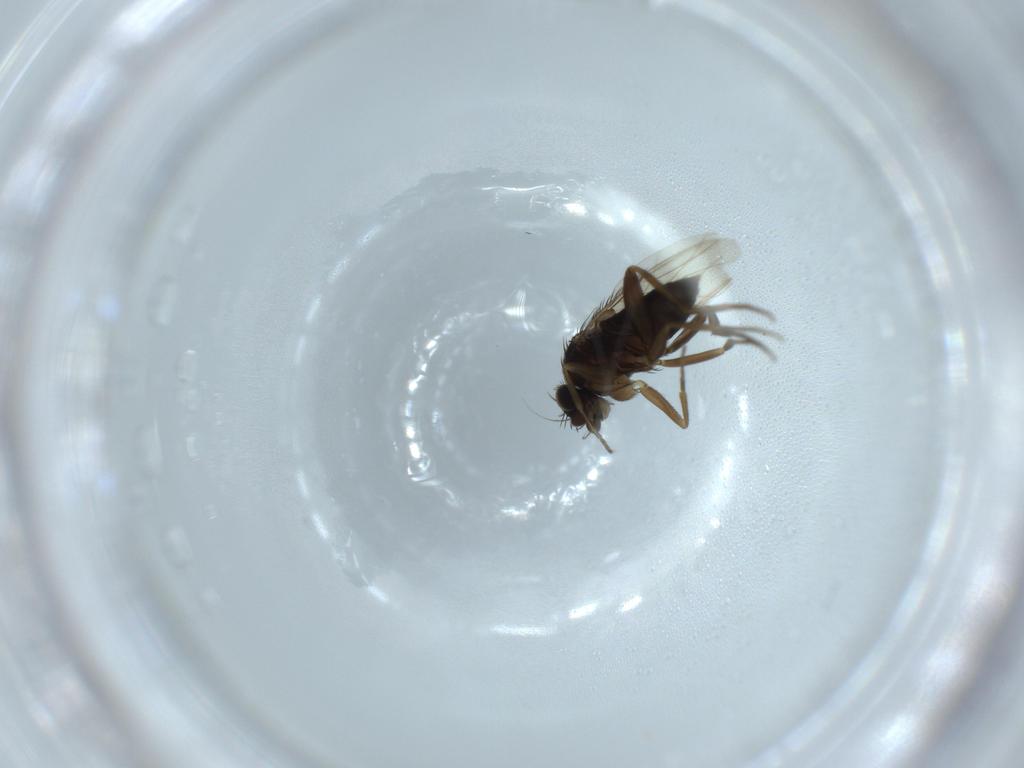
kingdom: Animalia
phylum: Arthropoda
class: Insecta
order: Diptera
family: Phoridae
